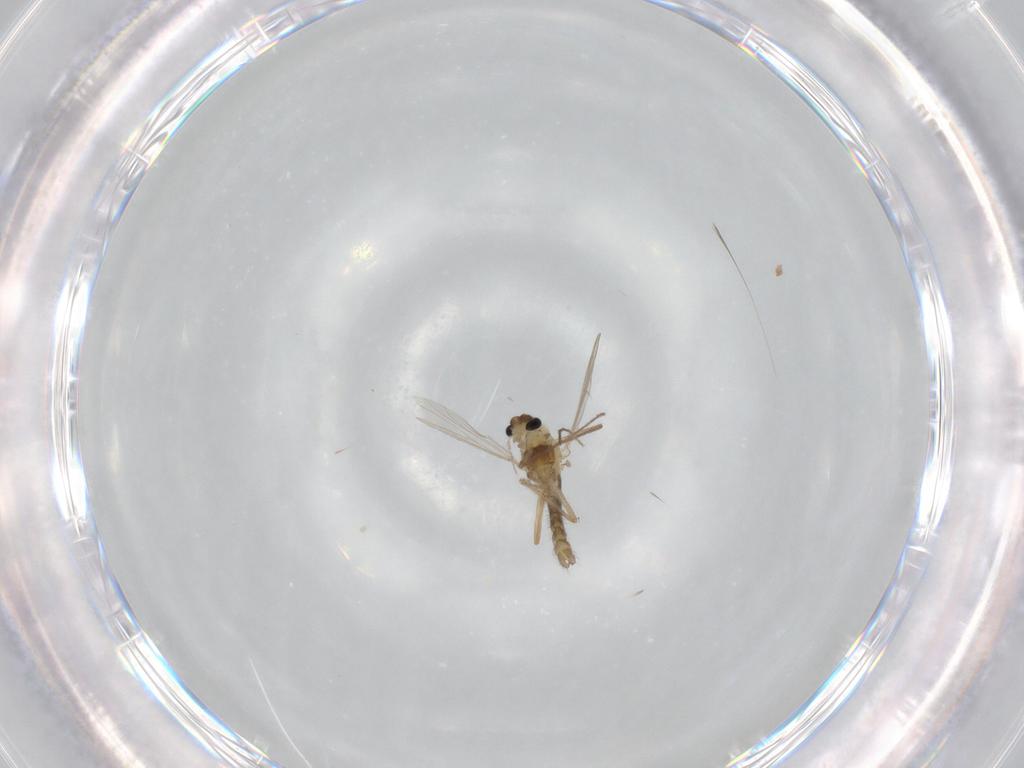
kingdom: Animalia
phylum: Arthropoda
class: Insecta
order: Diptera
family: Chironomidae
